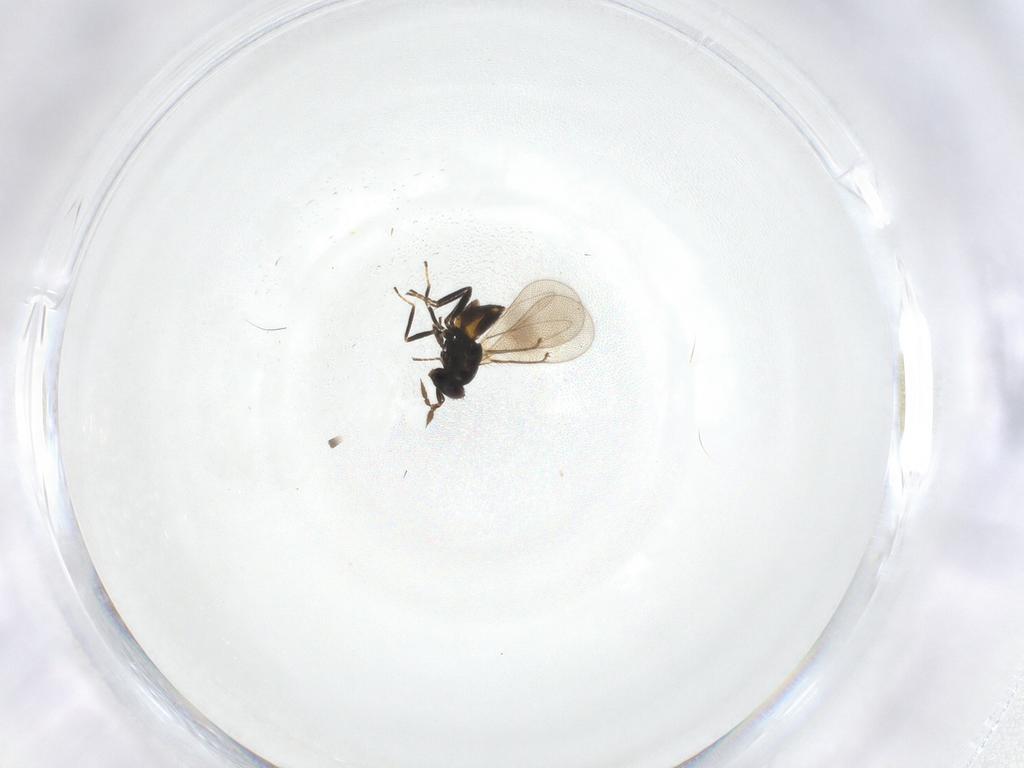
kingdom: Animalia
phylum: Arthropoda
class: Insecta
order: Hymenoptera
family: Eulophidae
